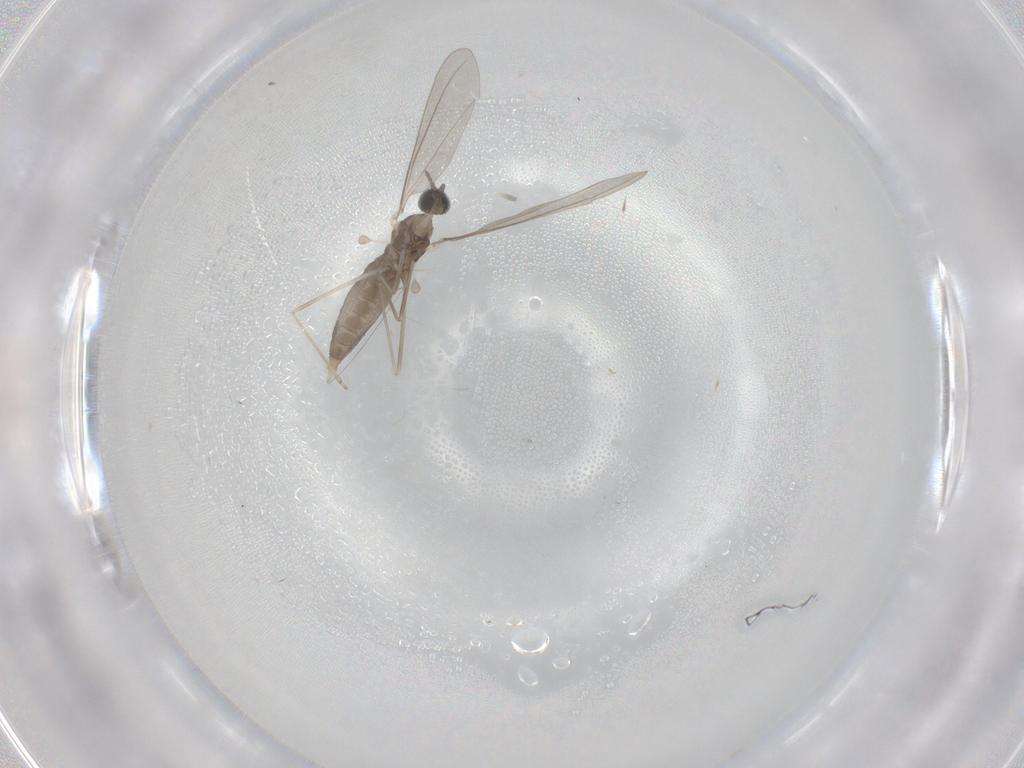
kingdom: Animalia
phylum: Arthropoda
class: Insecta
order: Diptera
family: Cecidomyiidae
